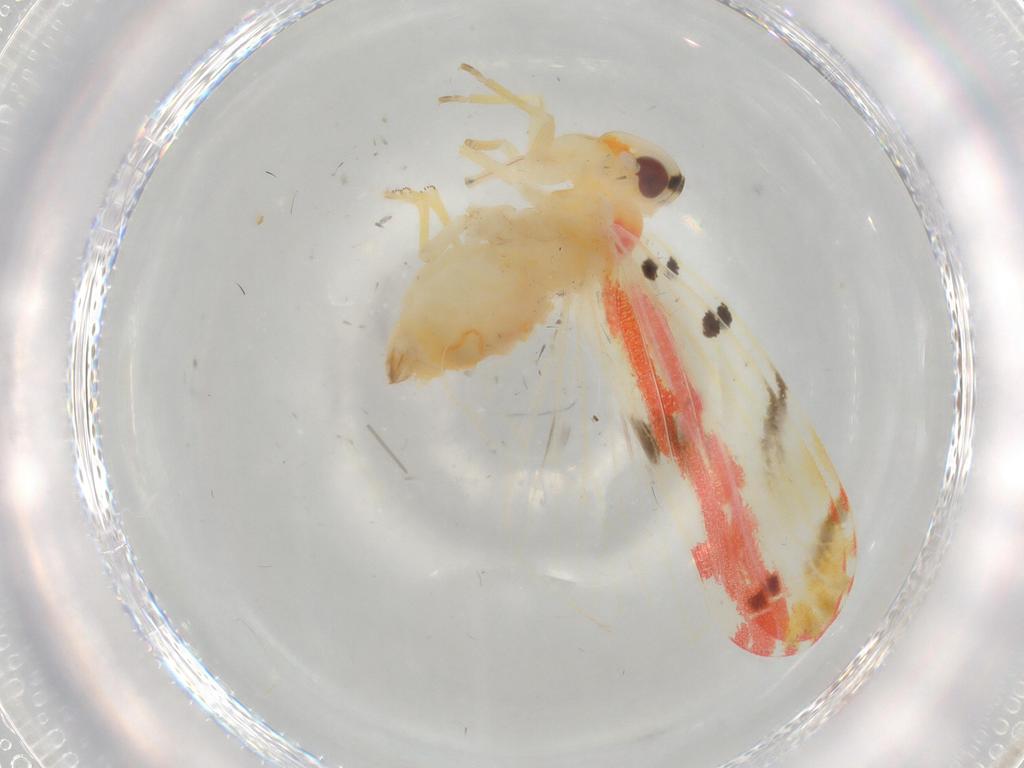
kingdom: Animalia
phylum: Arthropoda
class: Insecta
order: Hemiptera
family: Derbidae
